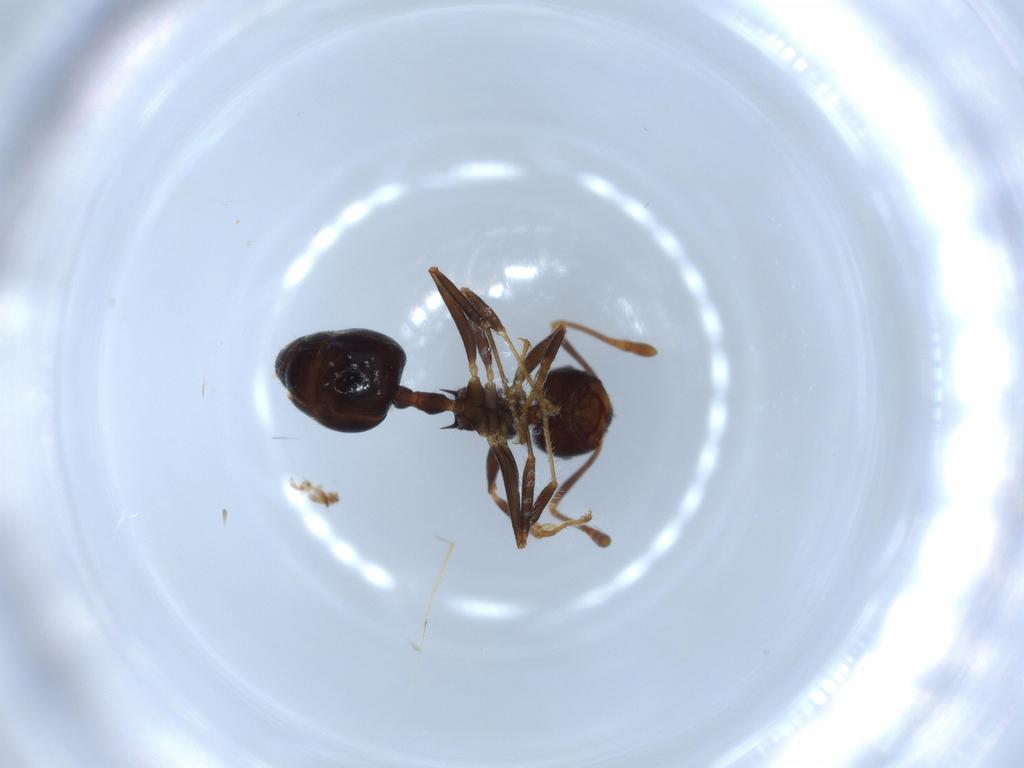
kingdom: Animalia
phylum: Arthropoda
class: Insecta
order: Hymenoptera
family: Formicidae
